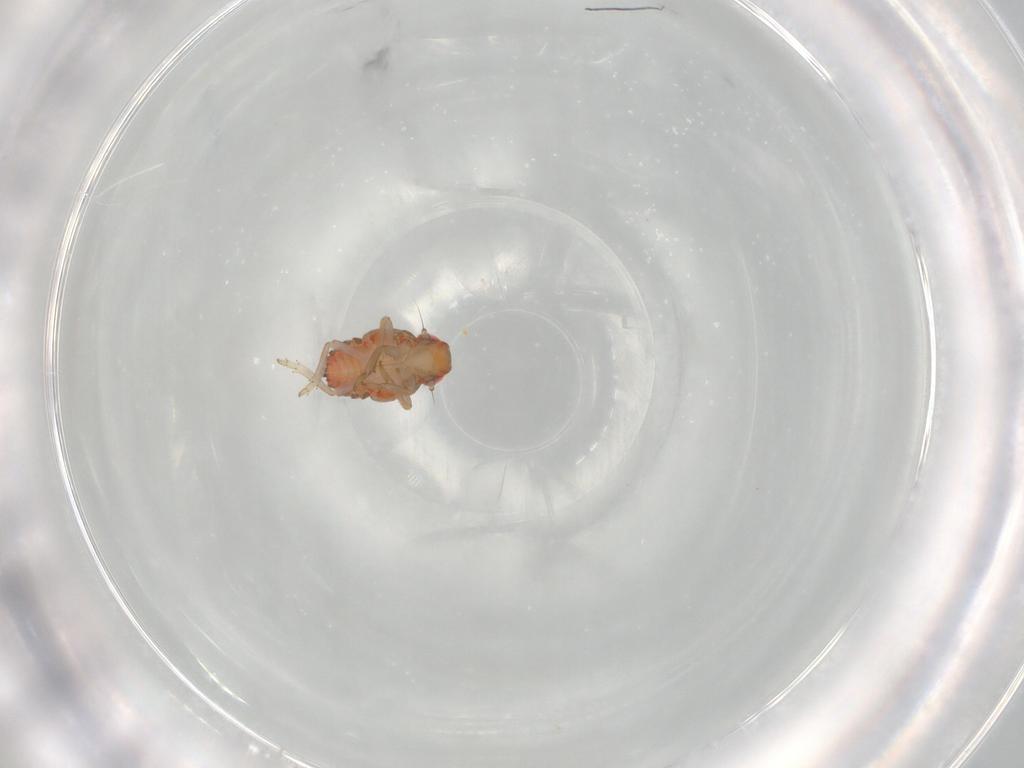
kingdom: Animalia
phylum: Arthropoda
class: Insecta
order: Hemiptera
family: Issidae
